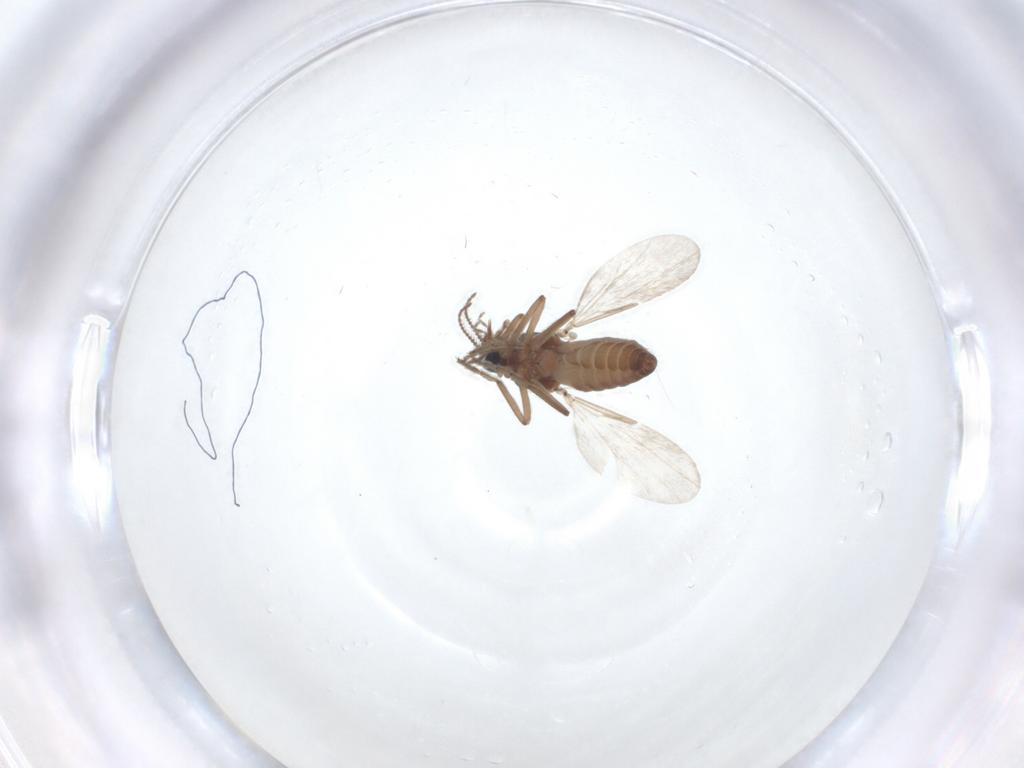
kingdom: Animalia
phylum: Arthropoda
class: Insecta
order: Diptera
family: Ceratopogonidae
